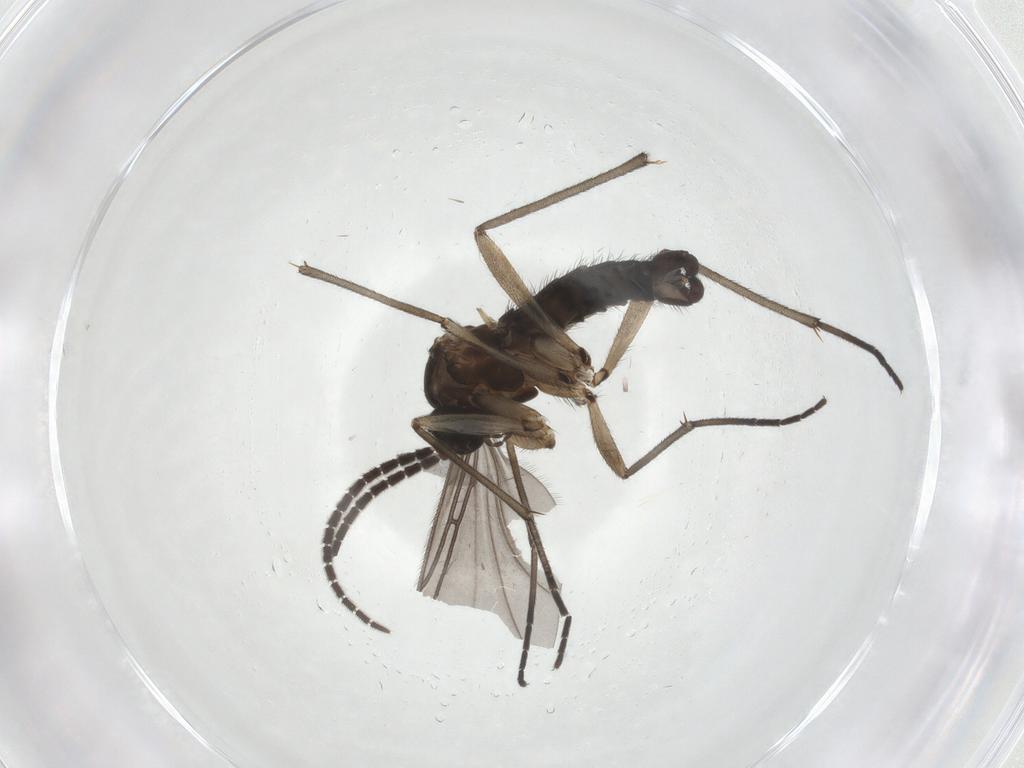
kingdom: Animalia
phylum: Arthropoda
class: Insecta
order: Diptera
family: Sciaridae
